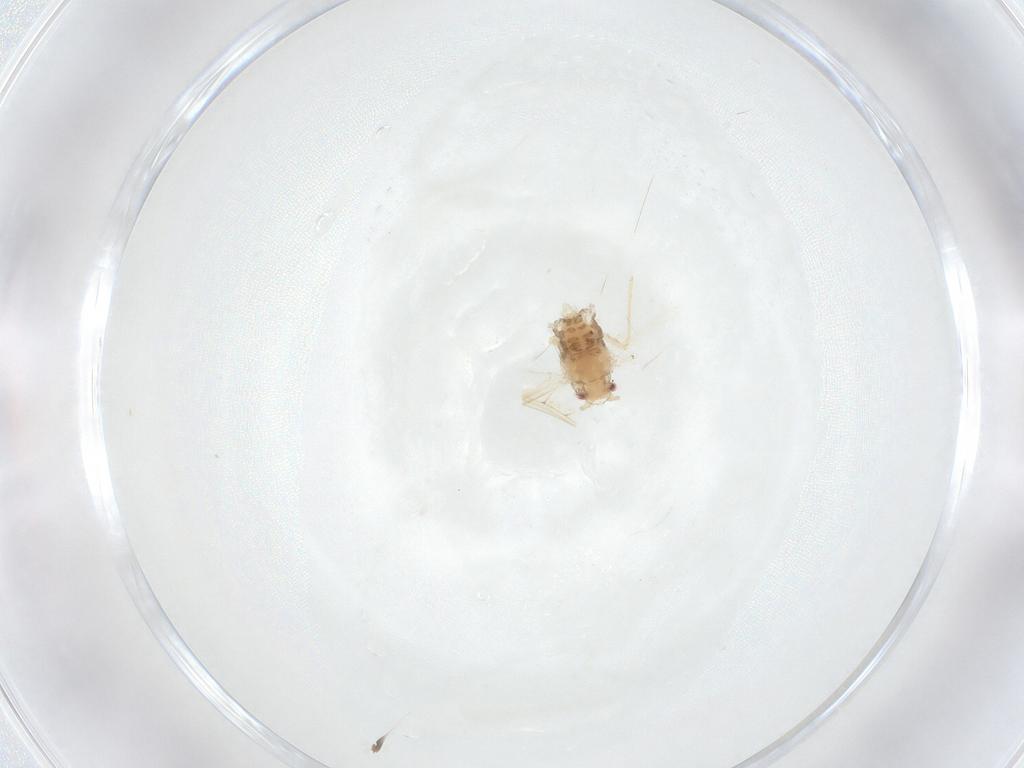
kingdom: Animalia
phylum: Arthropoda
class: Insecta
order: Hemiptera
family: Aphididae
